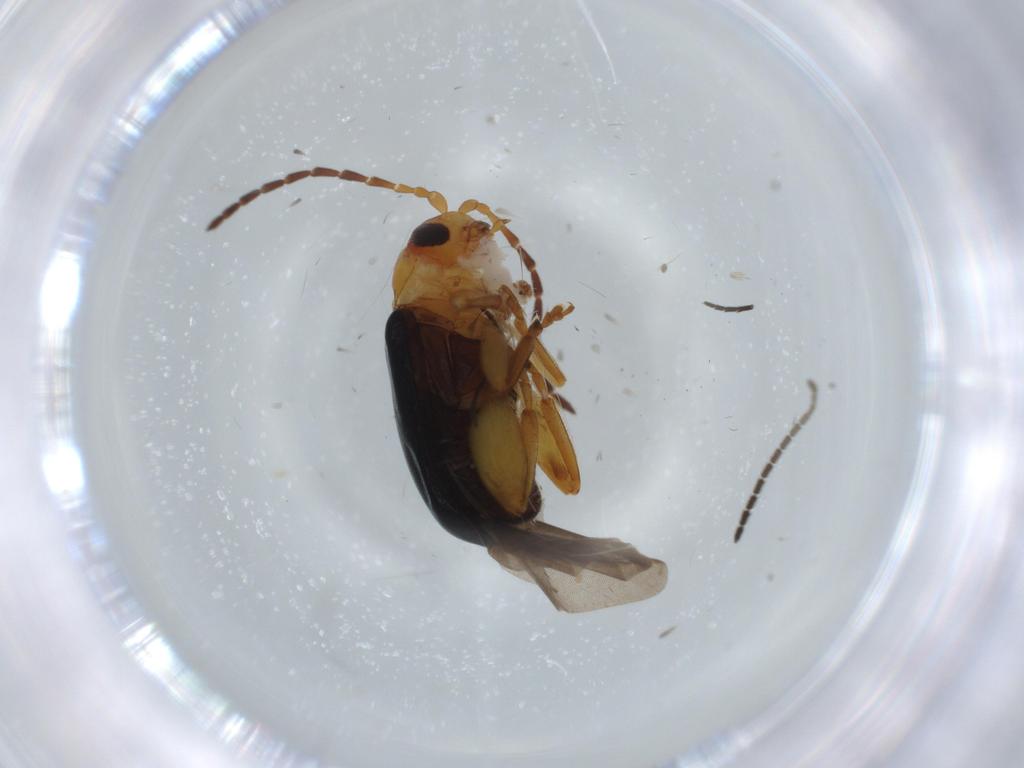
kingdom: Animalia
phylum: Arthropoda
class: Insecta
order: Coleoptera
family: Chrysomelidae
